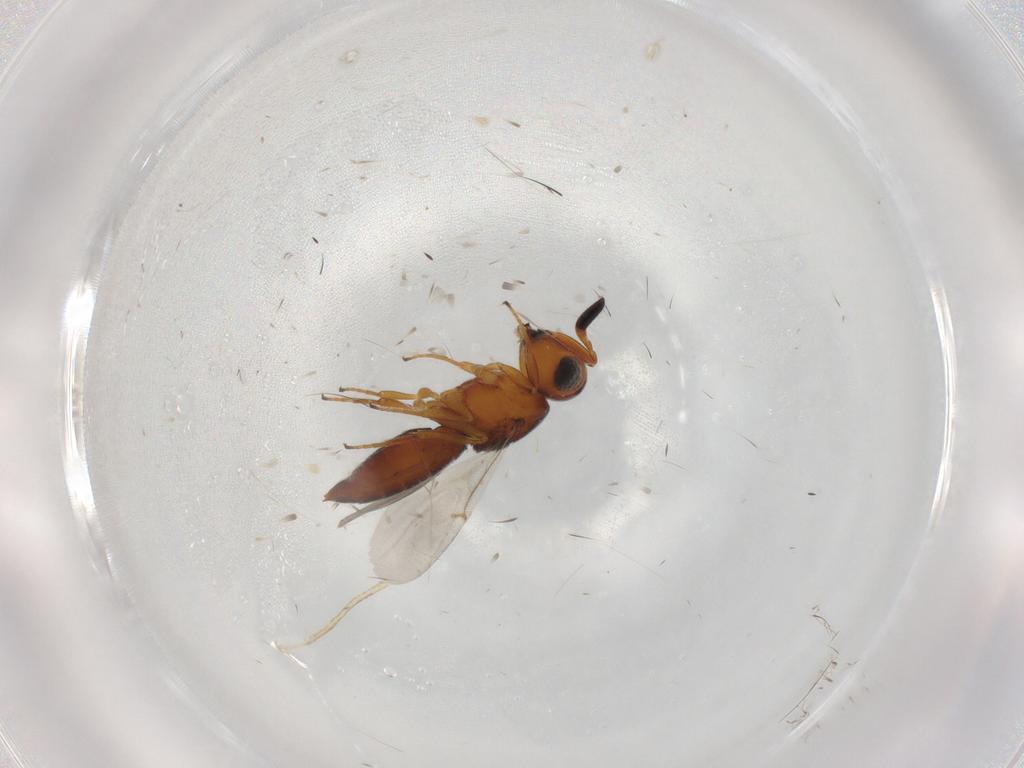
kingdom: Animalia
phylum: Arthropoda
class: Insecta
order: Hymenoptera
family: Scelionidae
